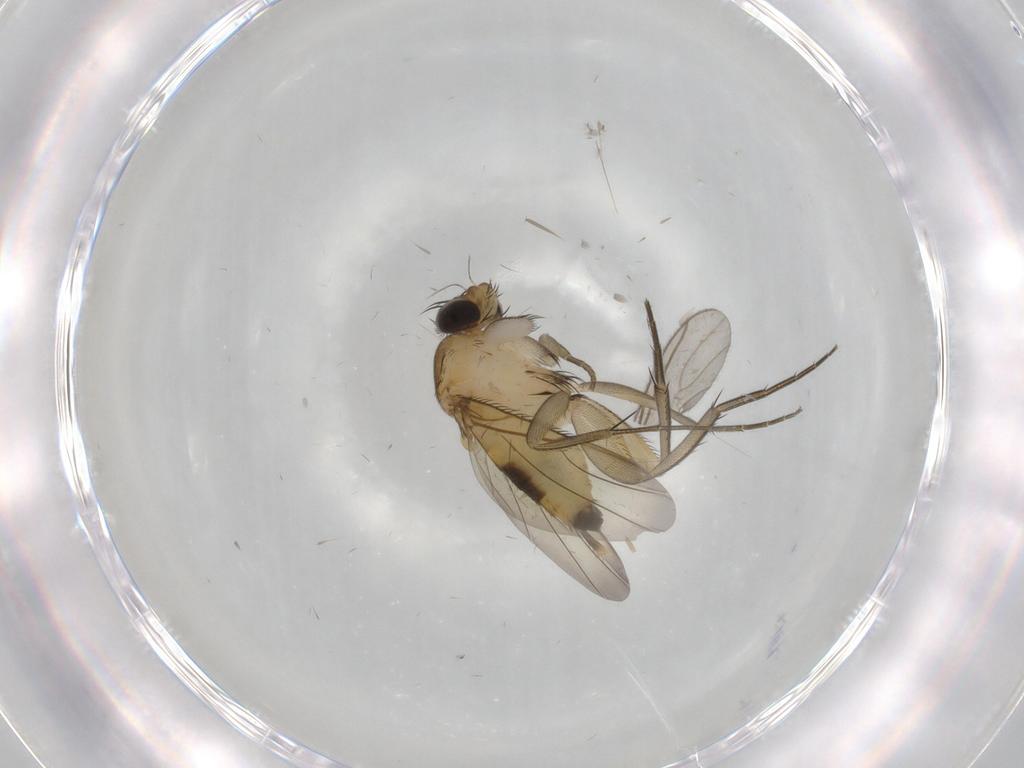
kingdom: Animalia
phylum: Arthropoda
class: Insecta
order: Diptera
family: Phoridae
